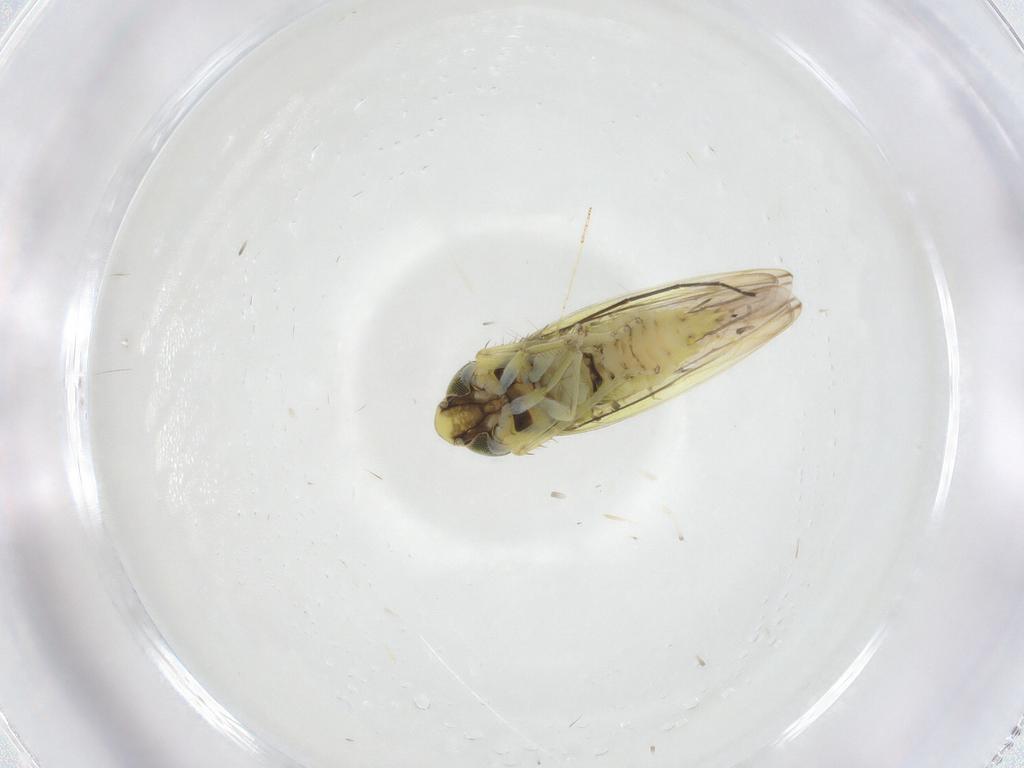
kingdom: Animalia
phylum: Arthropoda
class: Insecta
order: Hemiptera
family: Cicadellidae
